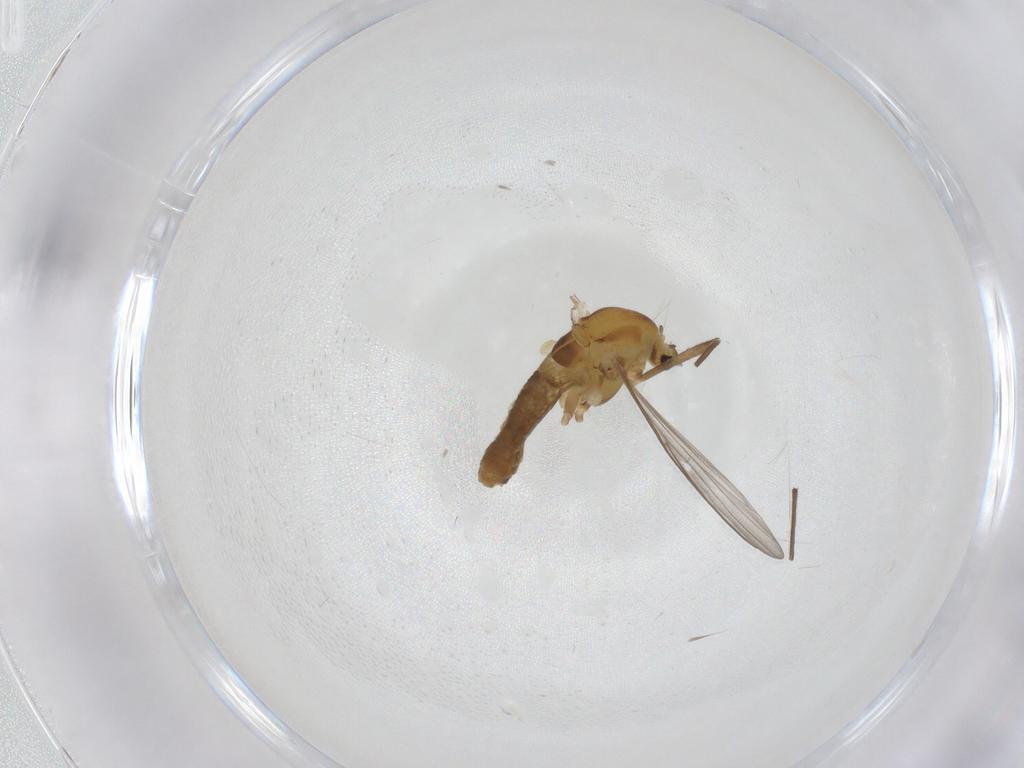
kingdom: Animalia
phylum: Arthropoda
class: Insecta
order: Diptera
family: Chironomidae
